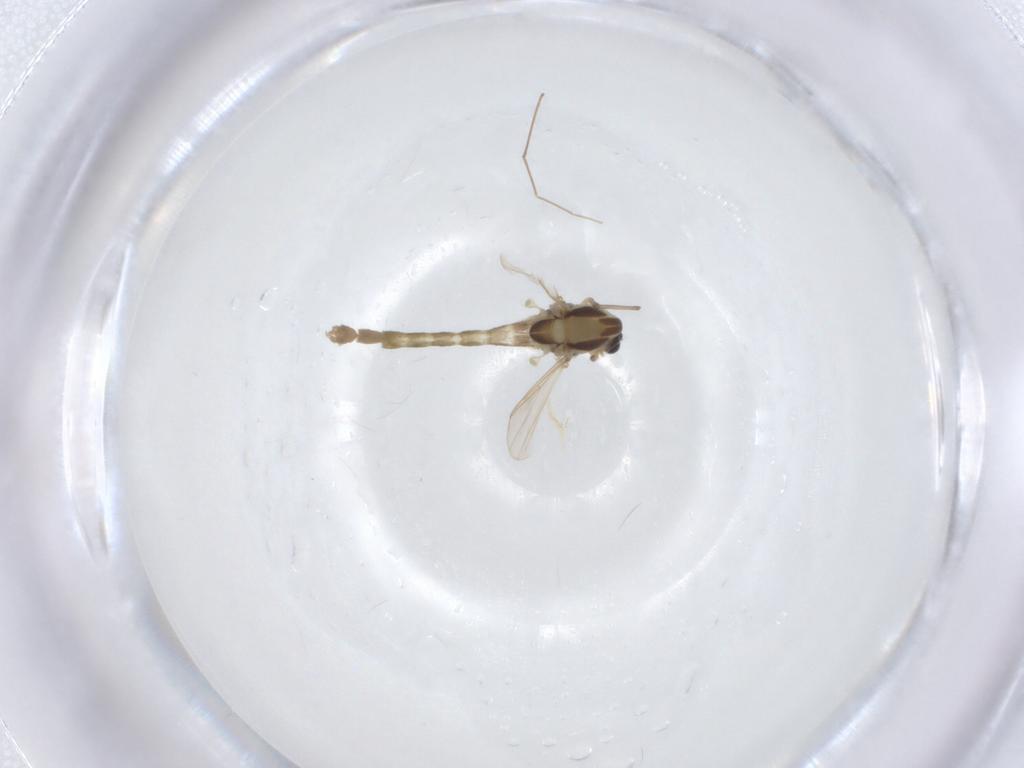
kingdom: Animalia
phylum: Arthropoda
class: Insecta
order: Diptera
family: Chironomidae
